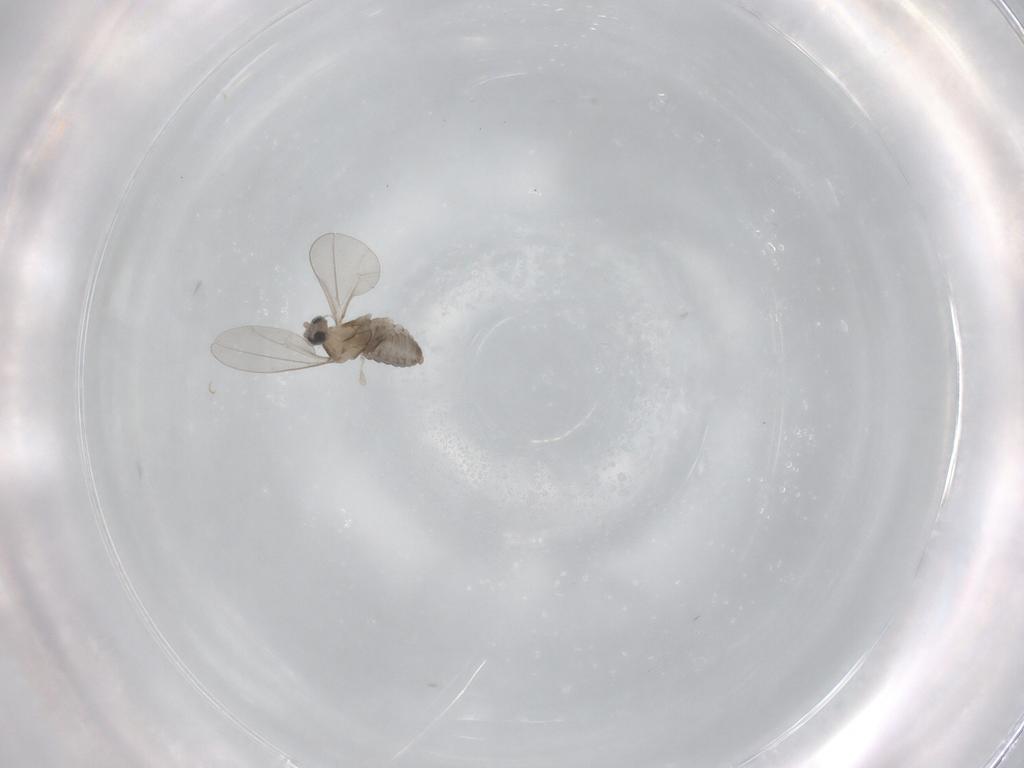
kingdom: Animalia
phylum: Arthropoda
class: Insecta
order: Diptera
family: Cecidomyiidae
